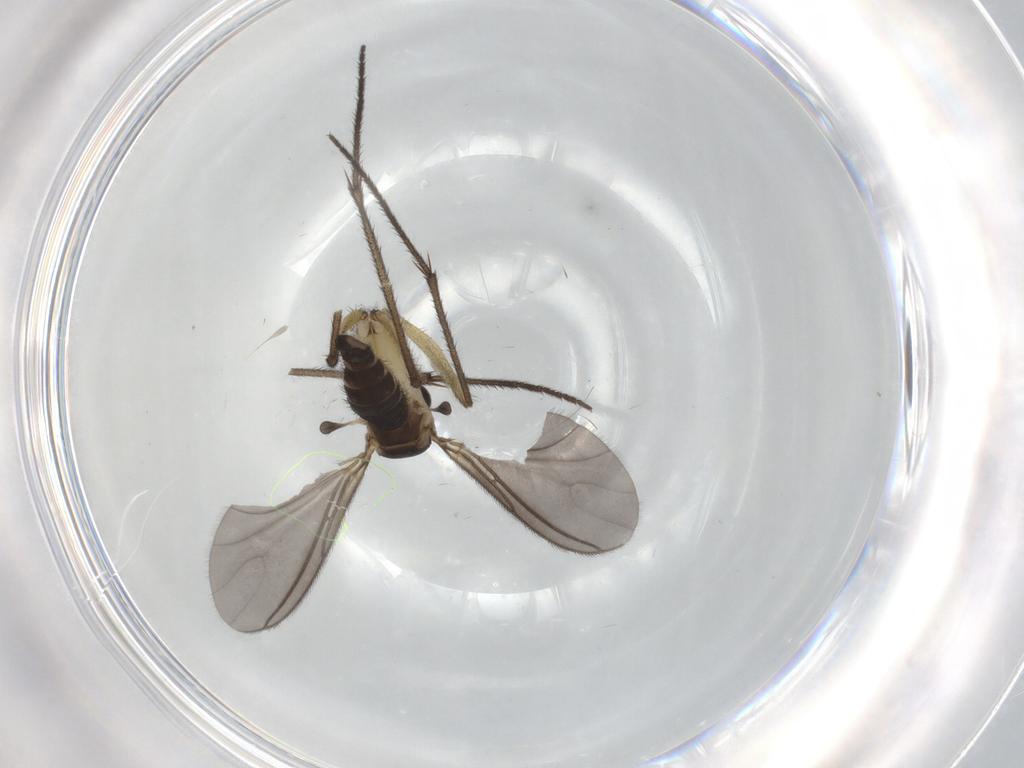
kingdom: Animalia
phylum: Arthropoda
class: Insecta
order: Diptera
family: Sciaridae
